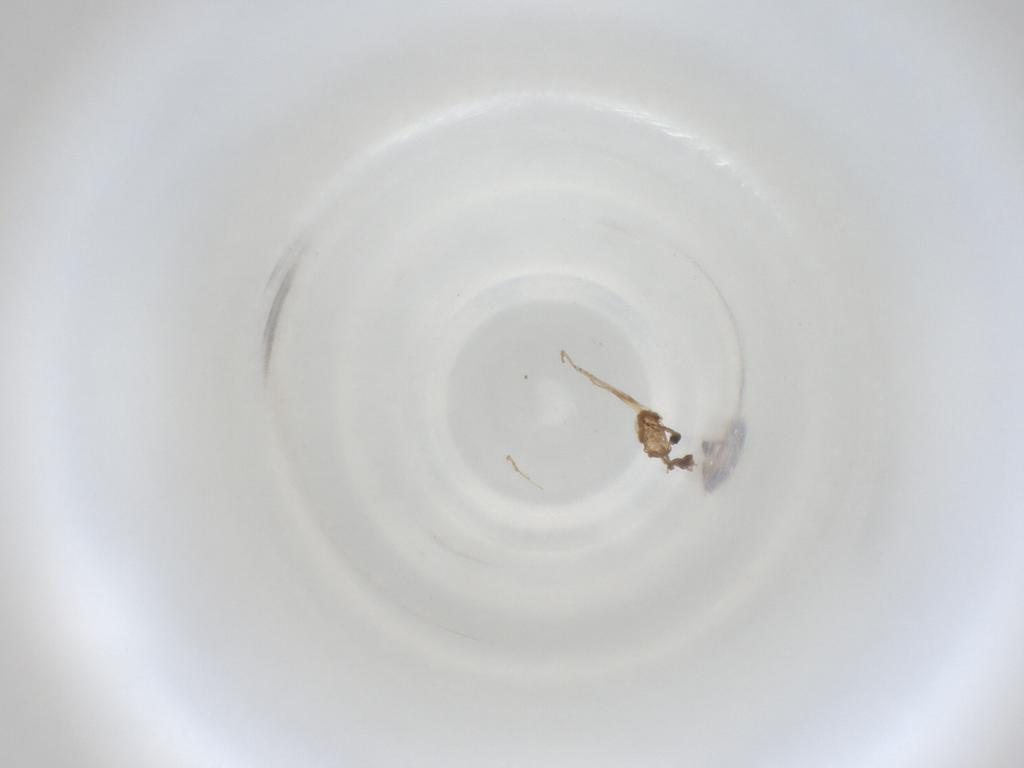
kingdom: Animalia
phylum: Arthropoda
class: Insecta
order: Diptera
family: Cecidomyiidae
